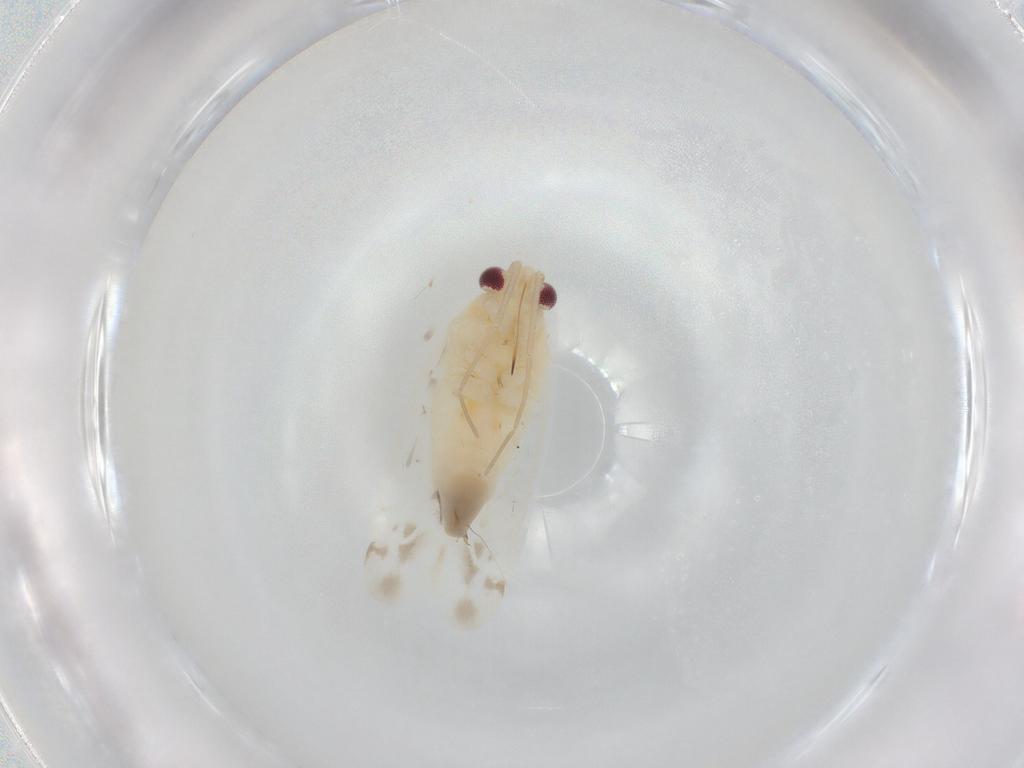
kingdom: Animalia
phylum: Arthropoda
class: Insecta
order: Hemiptera
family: Miridae
